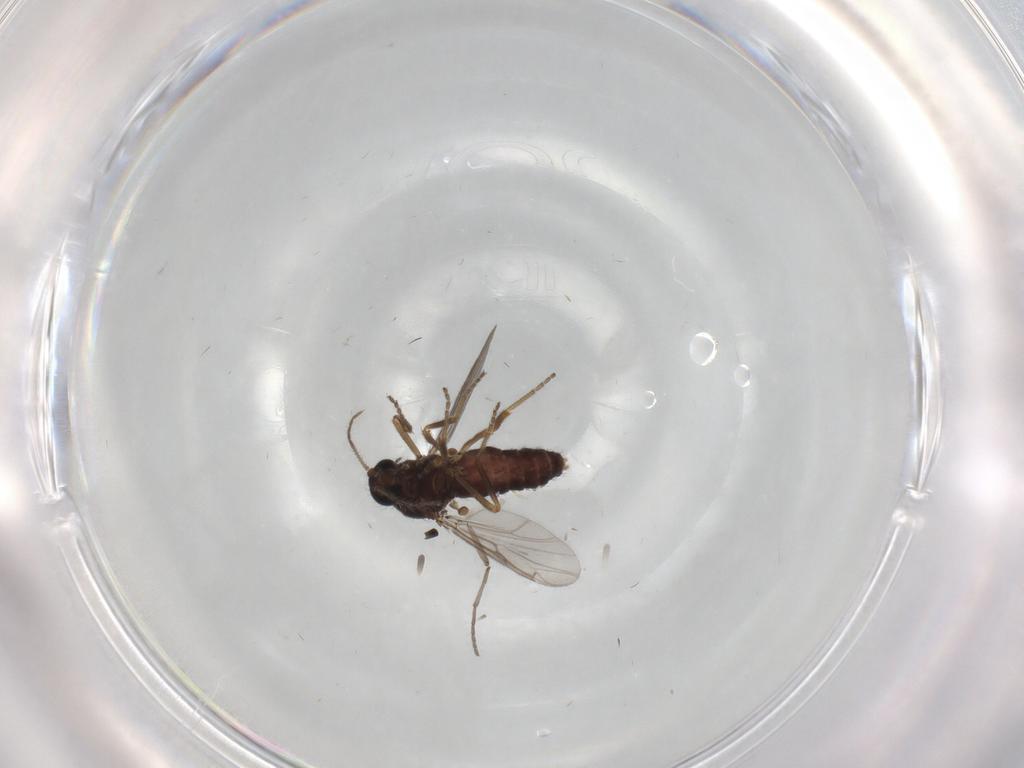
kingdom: Animalia
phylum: Arthropoda
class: Insecta
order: Diptera
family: Ceratopogonidae
